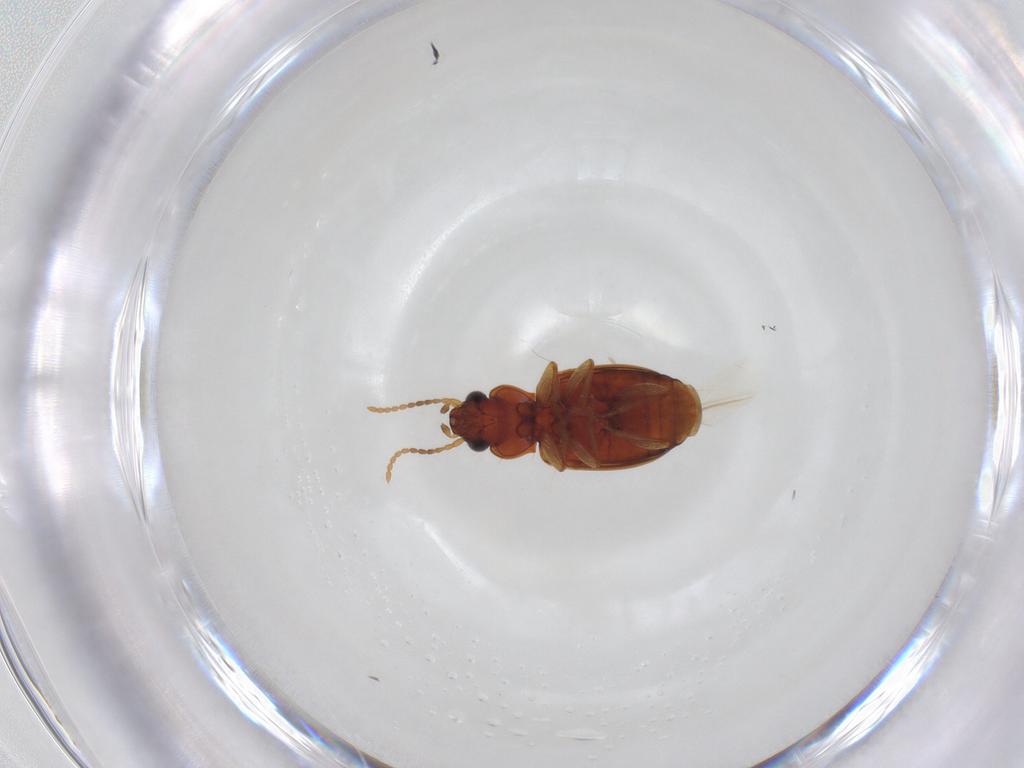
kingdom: Animalia
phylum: Arthropoda
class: Insecta
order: Coleoptera
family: Carabidae
